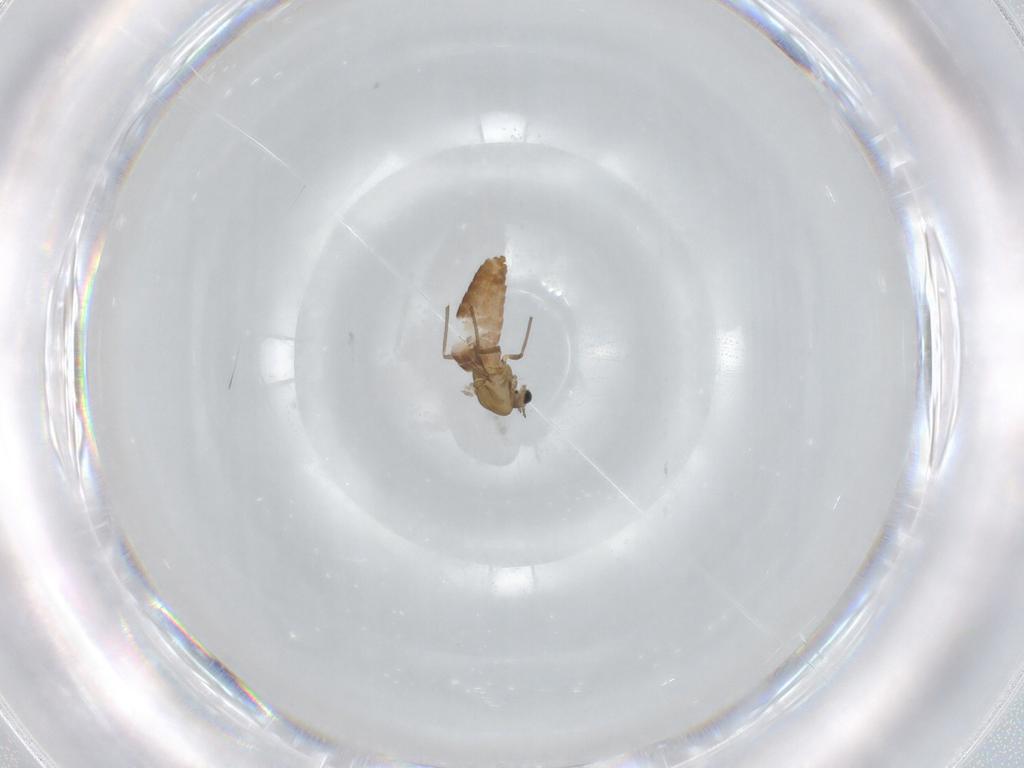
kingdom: Animalia
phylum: Arthropoda
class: Insecta
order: Diptera
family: Chironomidae
